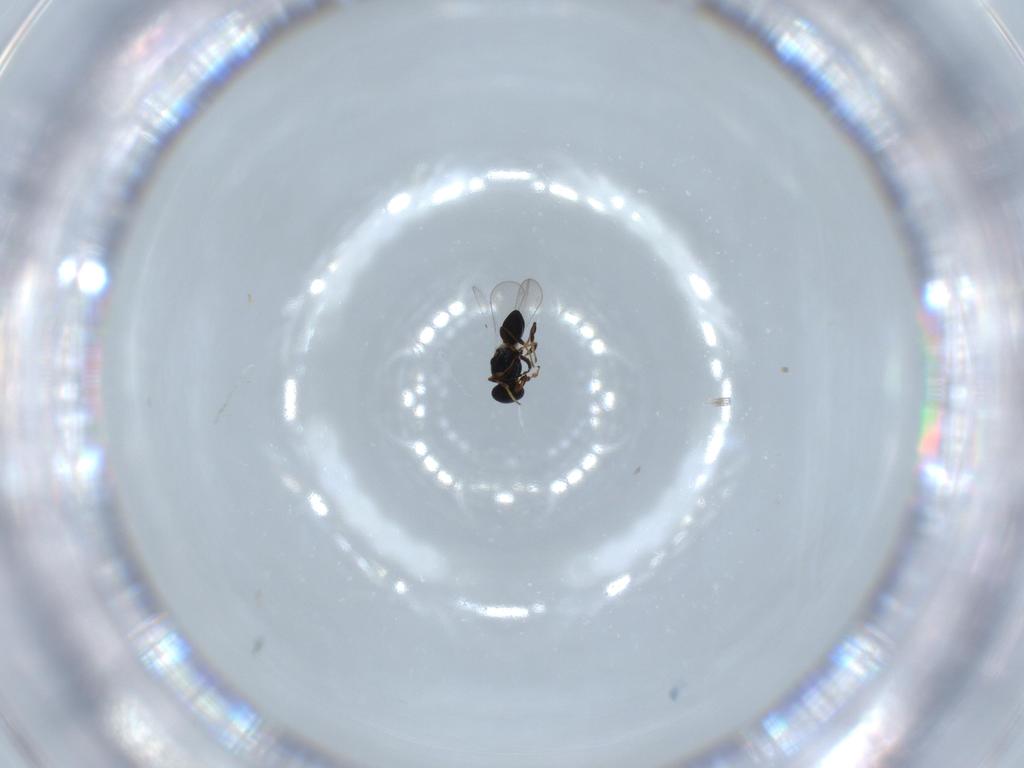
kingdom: Animalia
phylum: Arthropoda
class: Insecta
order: Hymenoptera
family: Platygastridae
